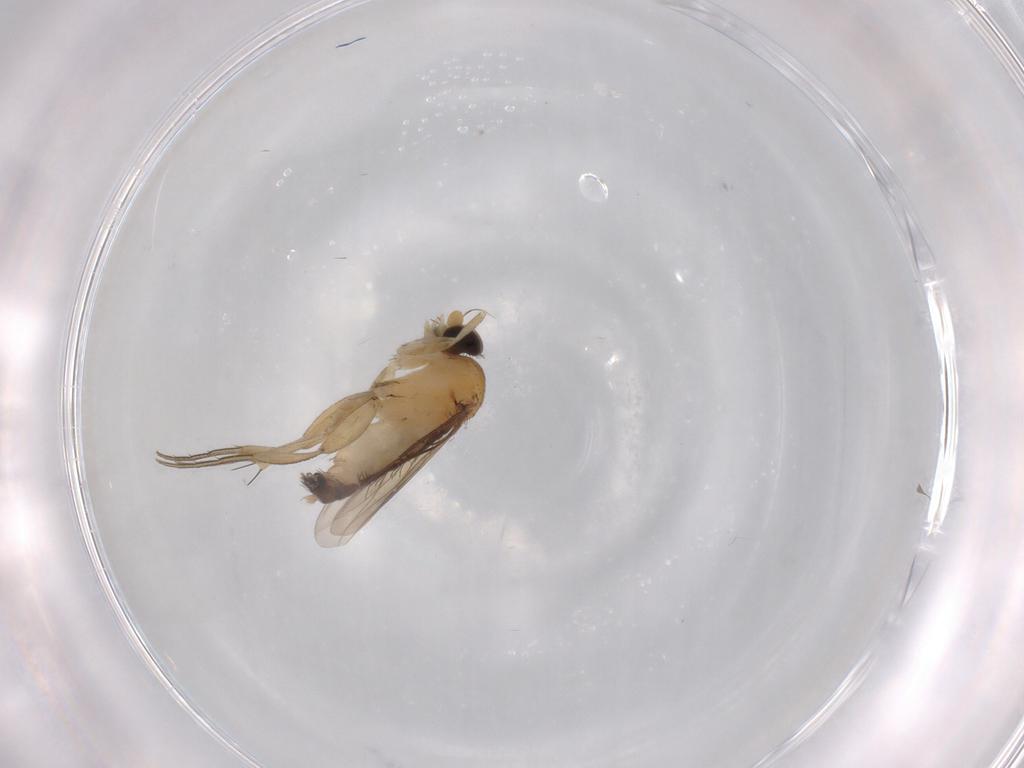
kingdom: Animalia
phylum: Arthropoda
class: Insecta
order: Diptera
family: Phoridae
